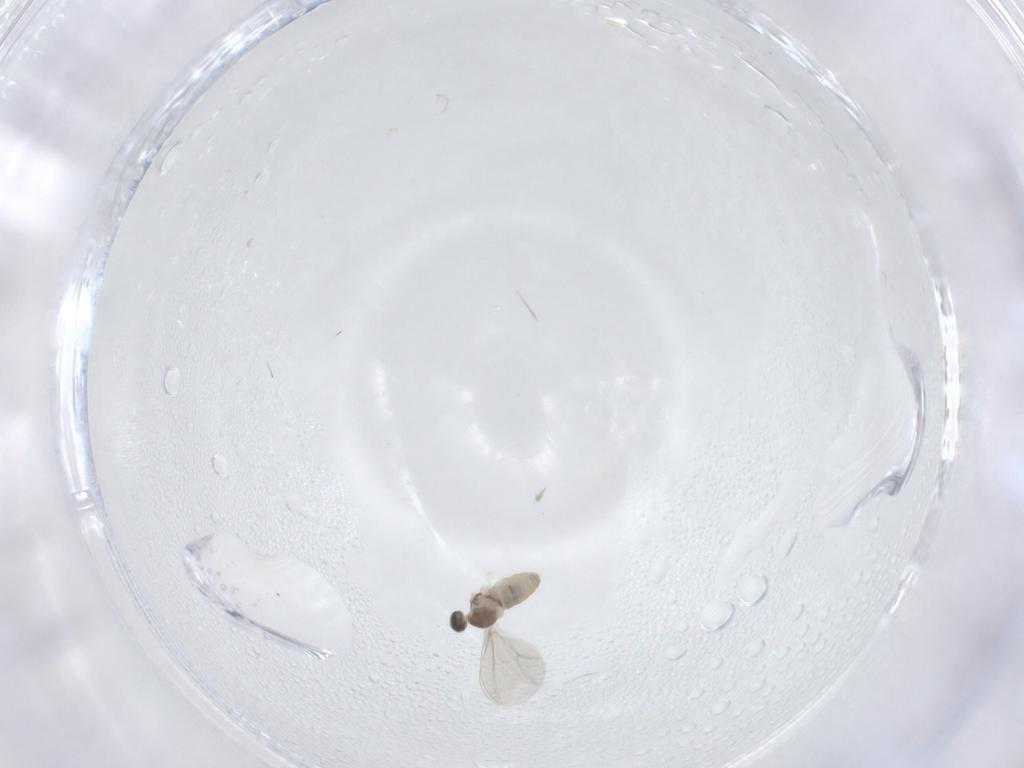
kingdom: Animalia
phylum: Arthropoda
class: Insecta
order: Diptera
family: Cecidomyiidae
